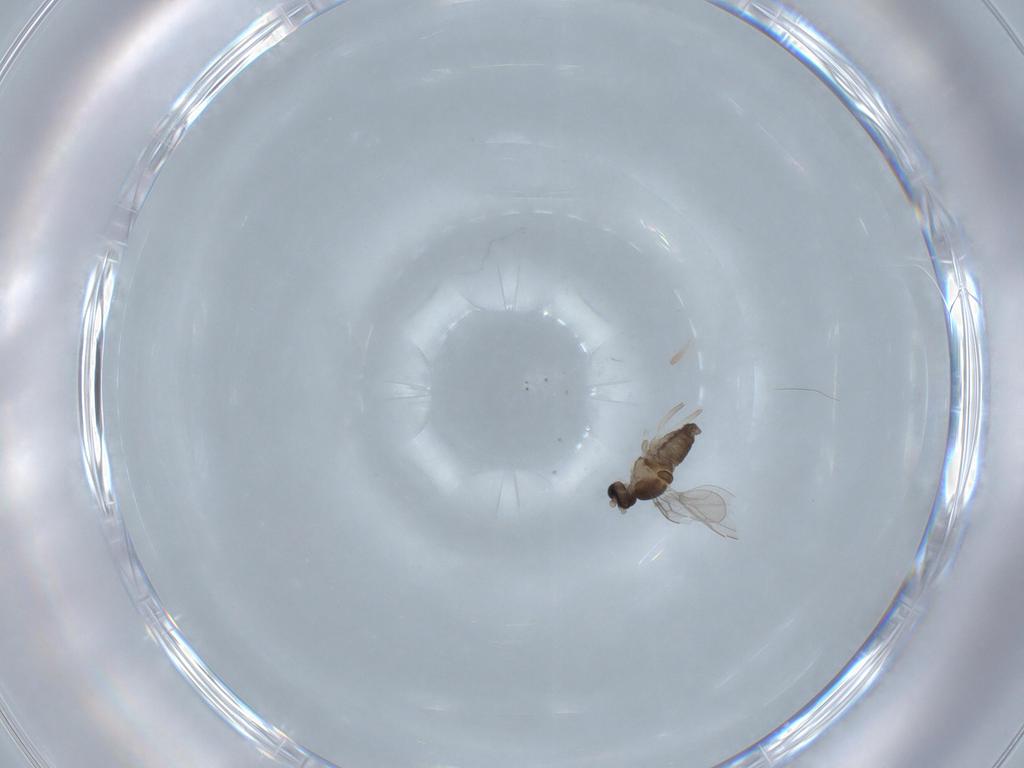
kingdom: Animalia
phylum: Arthropoda
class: Insecta
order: Diptera
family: Cecidomyiidae
